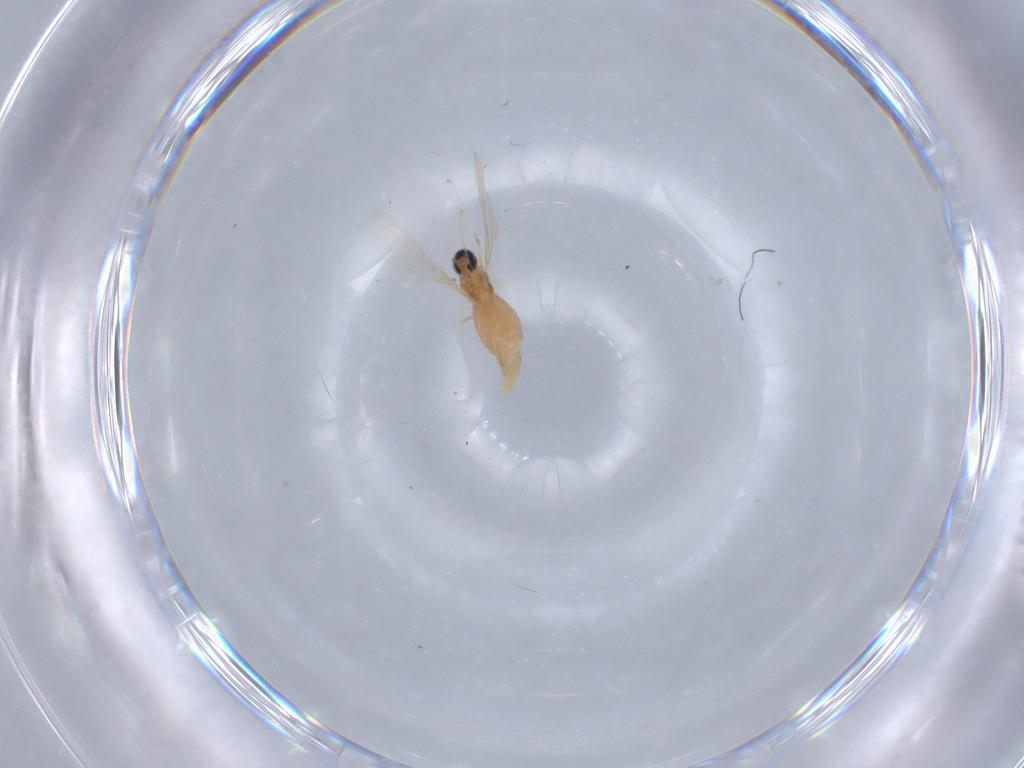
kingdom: Animalia
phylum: Arthropoda
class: Insecta
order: Diptera
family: Cecidomyiidae
